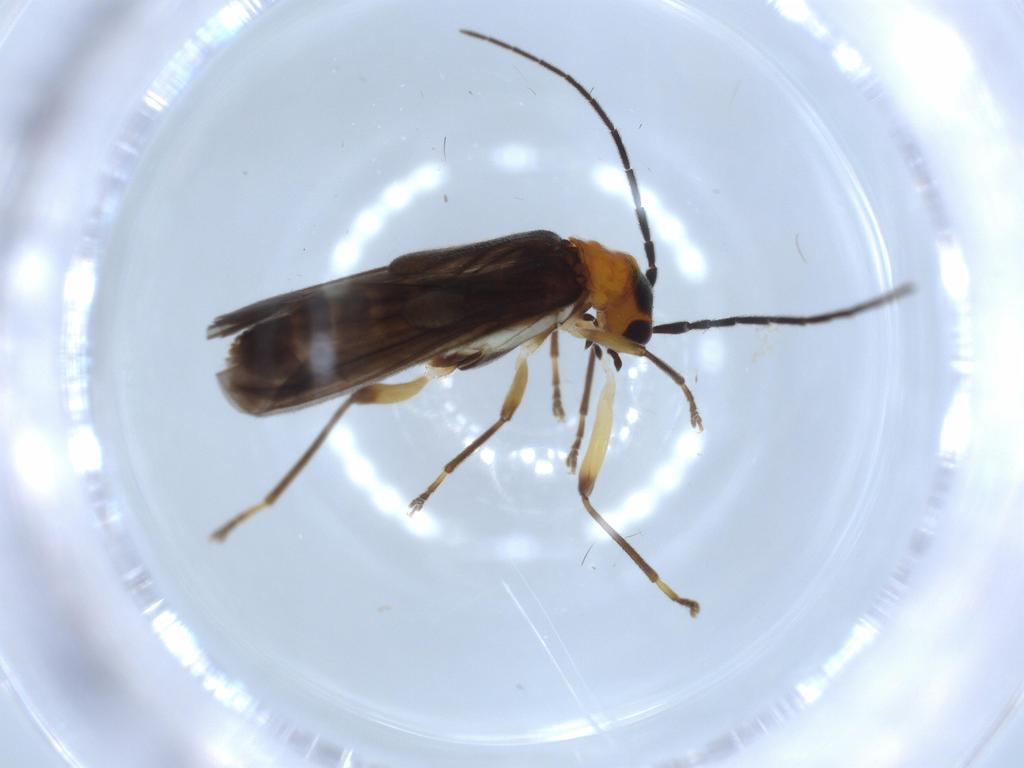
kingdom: Animalia
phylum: Arthropoda
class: Insecta
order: Coleoptera
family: Cantharidae
